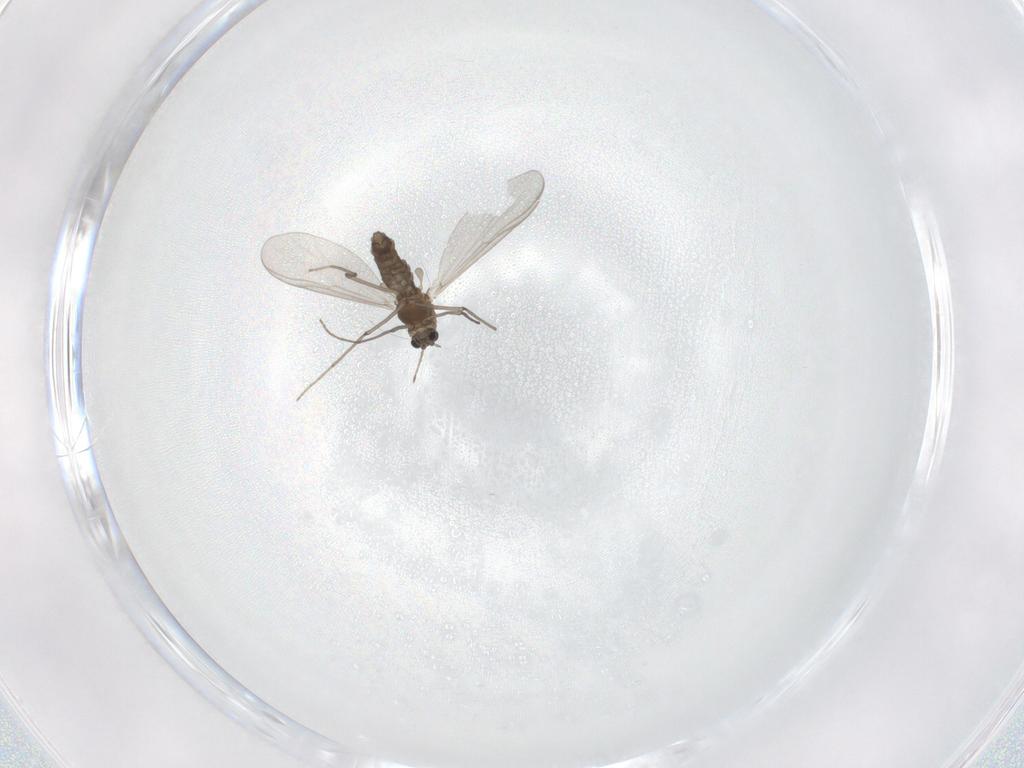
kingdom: Animalia
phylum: Arthropoda
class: Insecta
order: Diptera
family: Chironomidae
